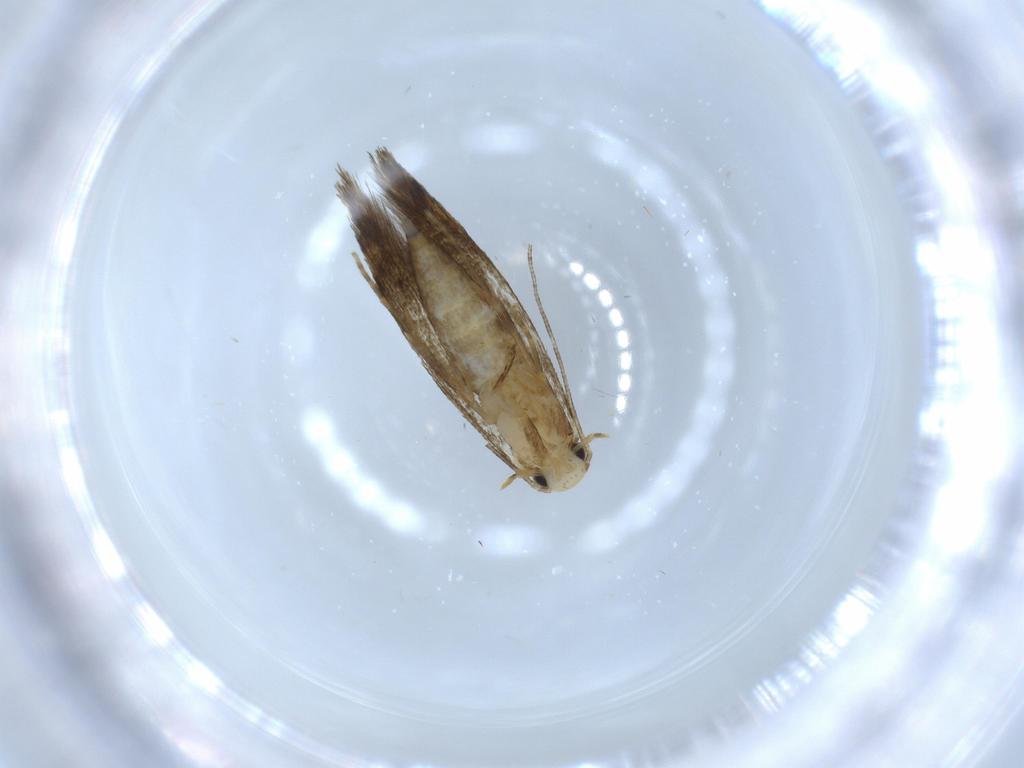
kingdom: Animalia
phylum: Arthropoda
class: Insecta
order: Lepidoptera
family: Tineidae
